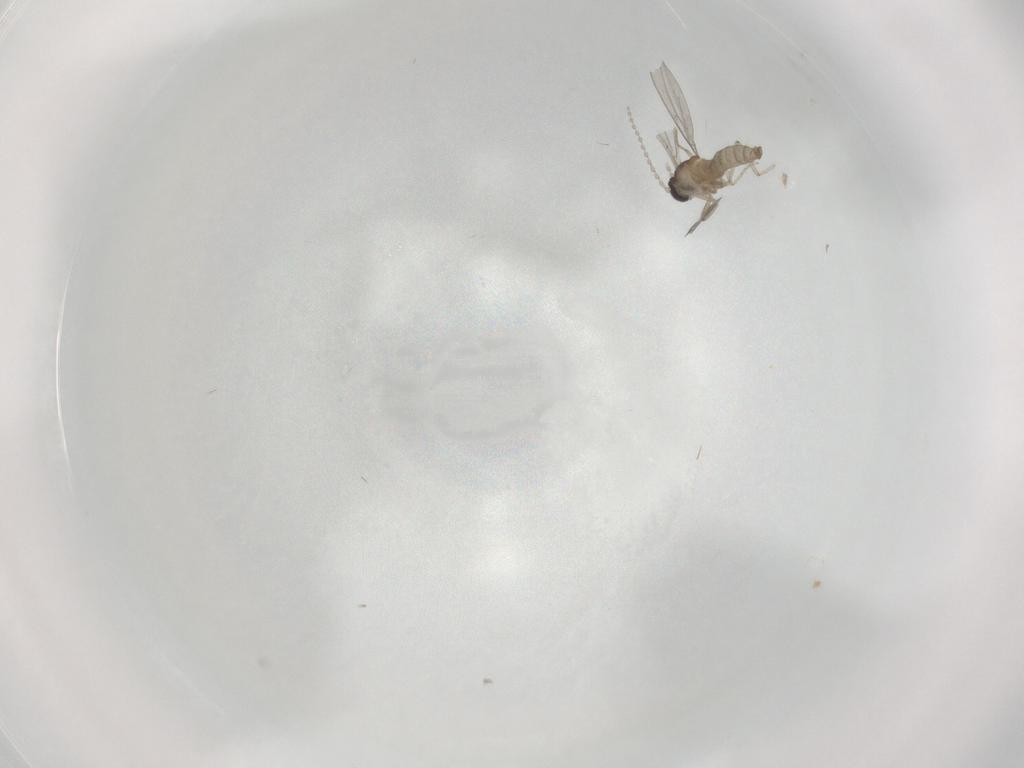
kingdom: Animalia
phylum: Arthropoda
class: Insecta
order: Diptera
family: Cecidomyiidae
